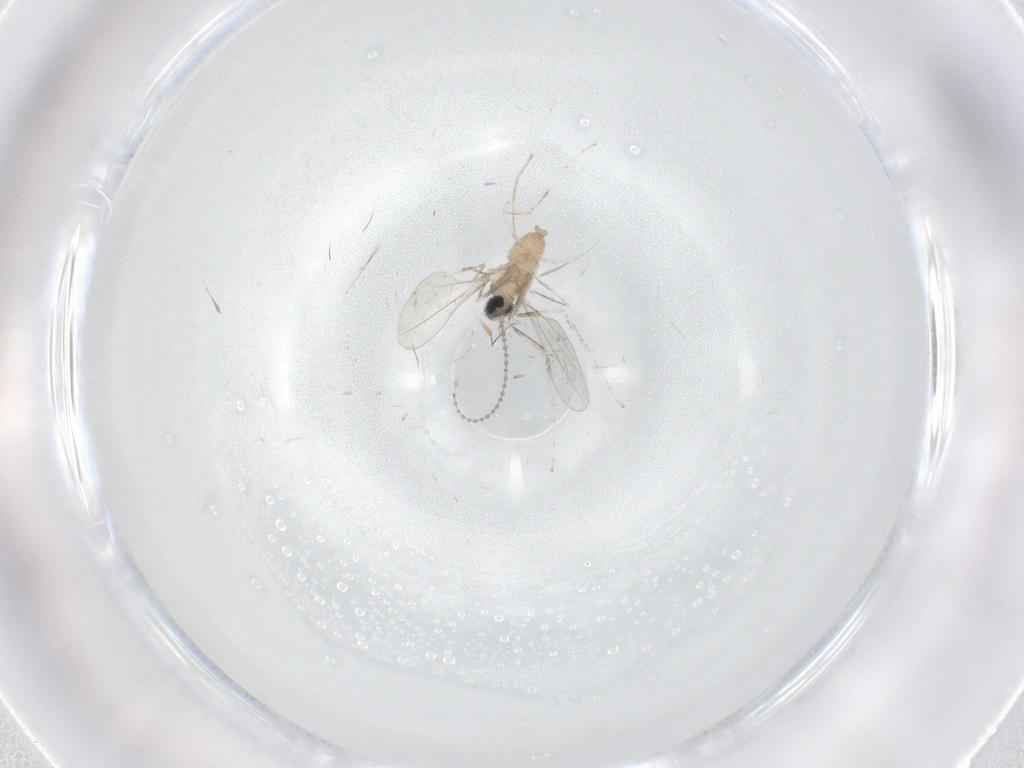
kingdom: Animalia
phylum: Arthropoda
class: Insecta
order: Diptera
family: Cecidomyiidae
